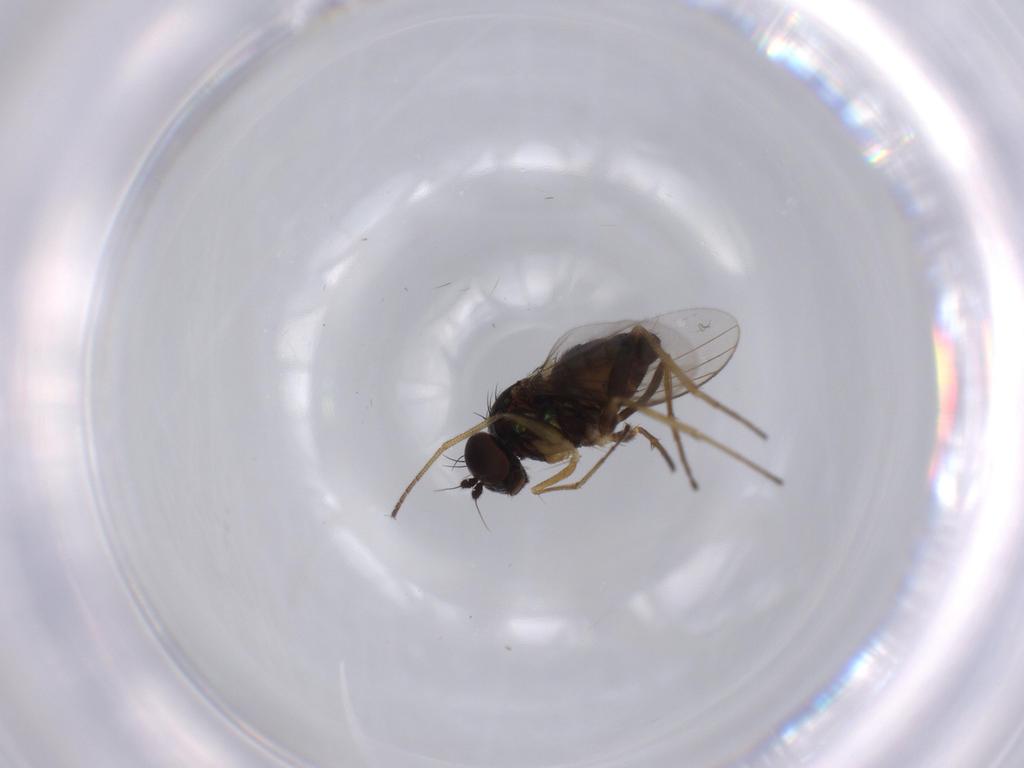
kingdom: Animalia
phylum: Arthropoda
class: Insecta
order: Diptera
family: Dolichopodidae
